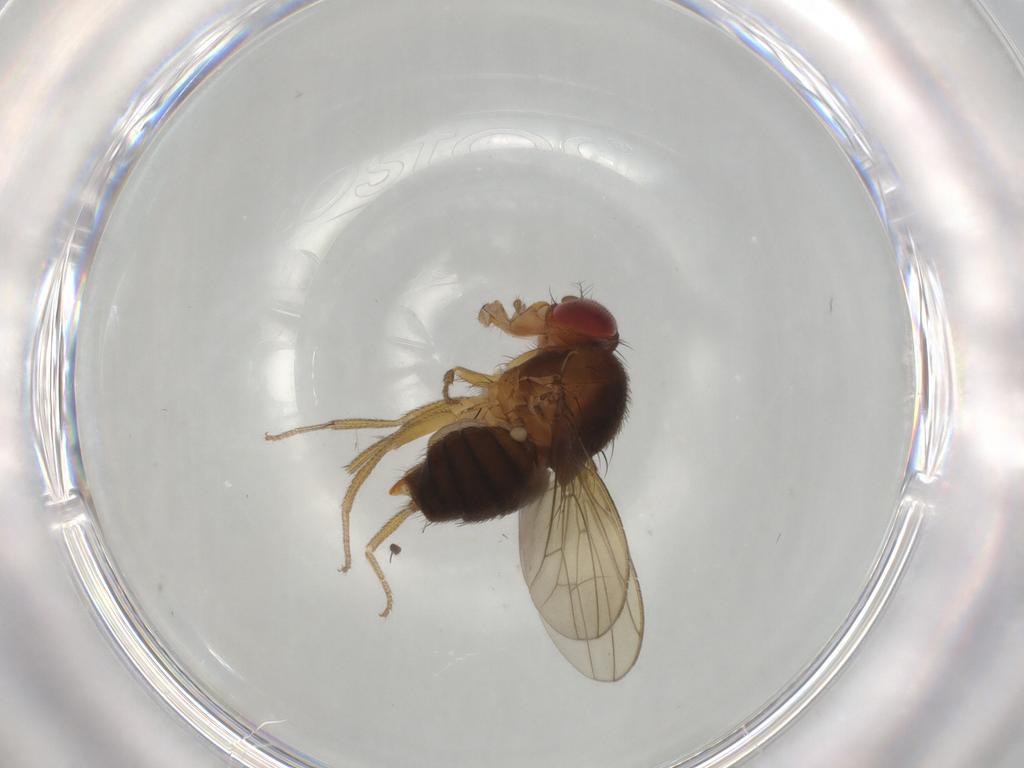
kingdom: Animalia
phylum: Arthropoda
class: Insecta
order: Diptera
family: Drosophilidae
